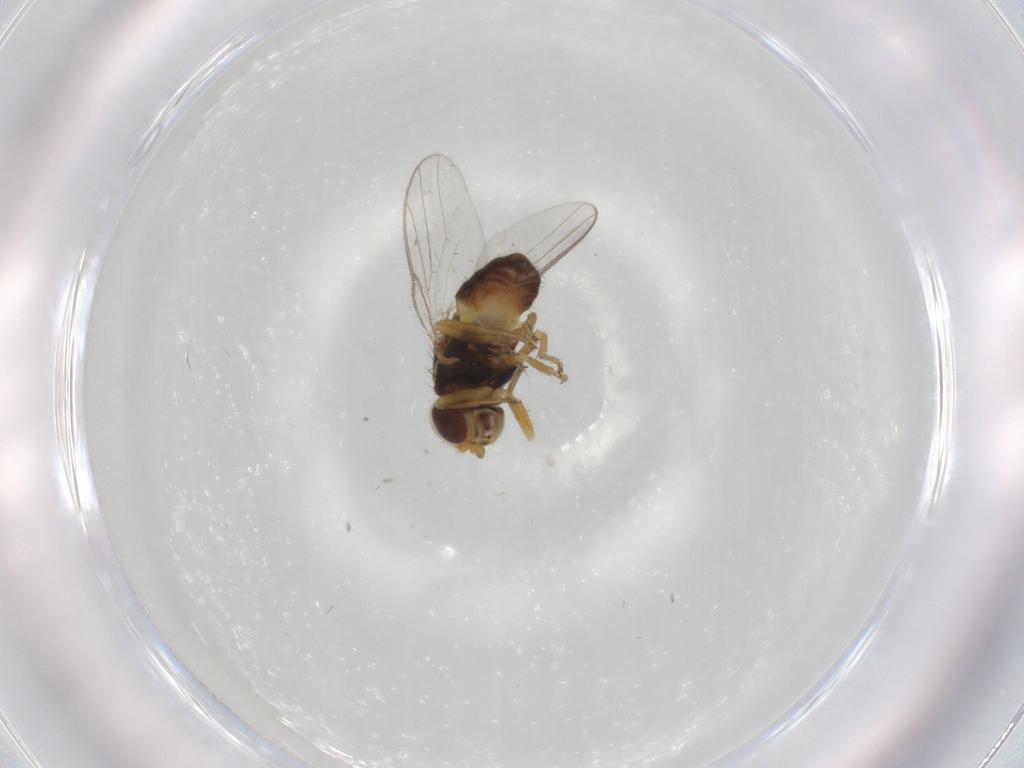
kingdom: Animalia
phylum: Arthropoda
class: Insecta
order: Diptera
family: Chloropidae
